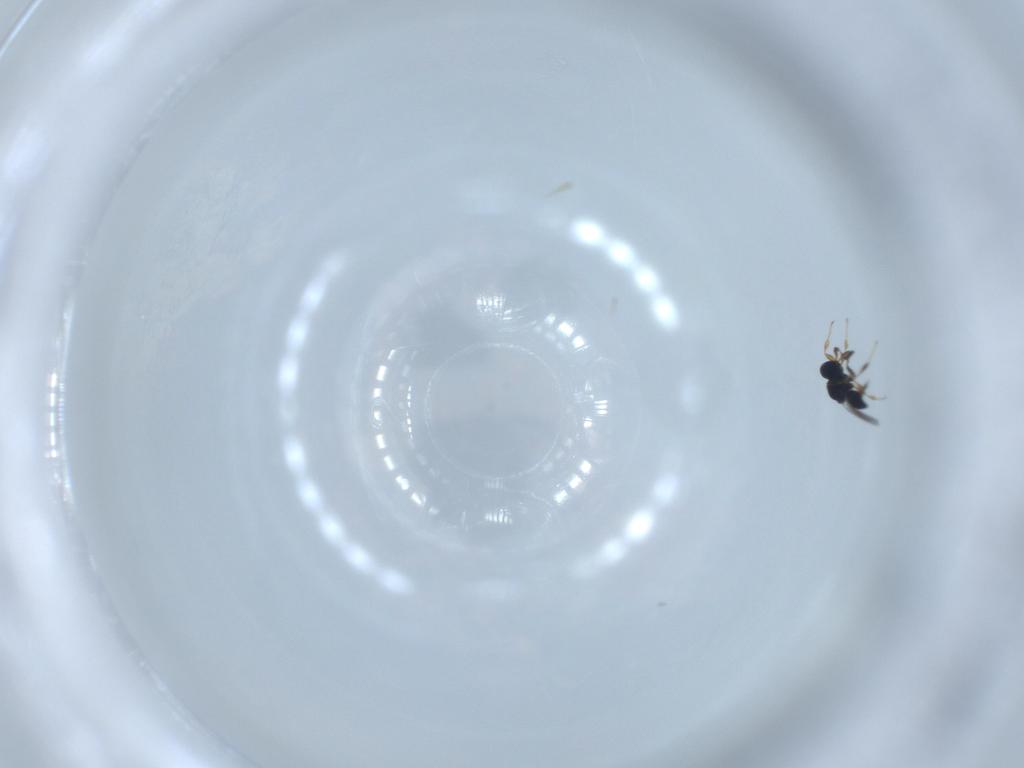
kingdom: Animalia
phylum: Arthropoda
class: Insecta
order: Hymenoptera
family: Platygastridae
